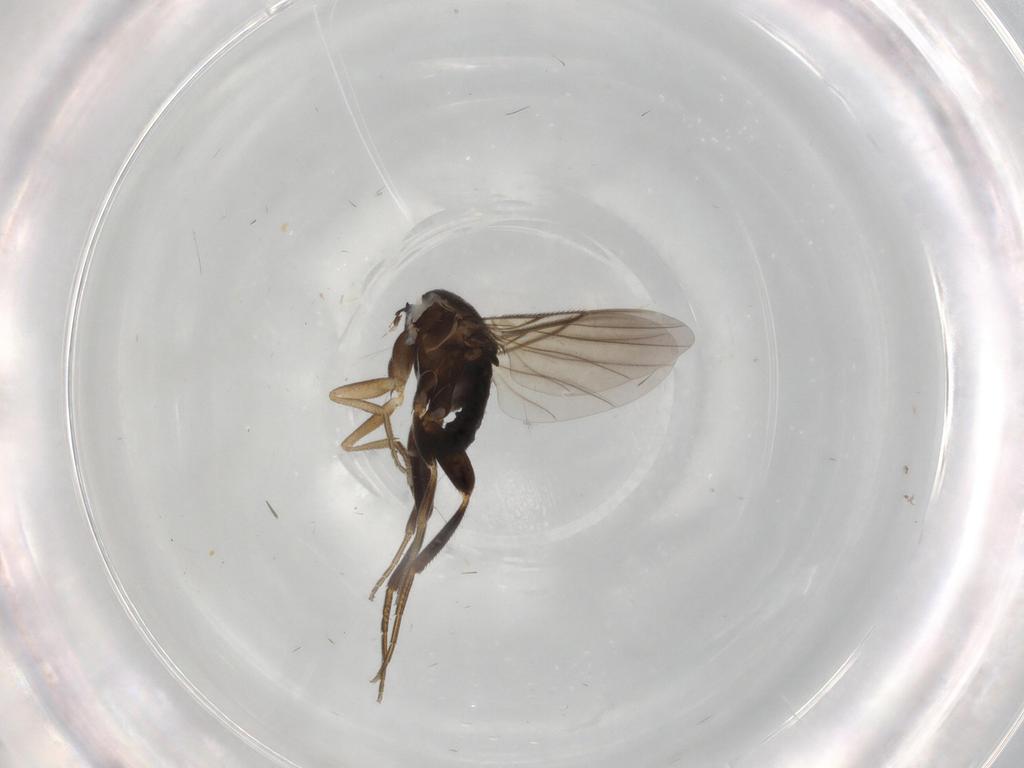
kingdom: Animalia
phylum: Arthropoda
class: Insecta
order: Diptera
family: Phoridae
